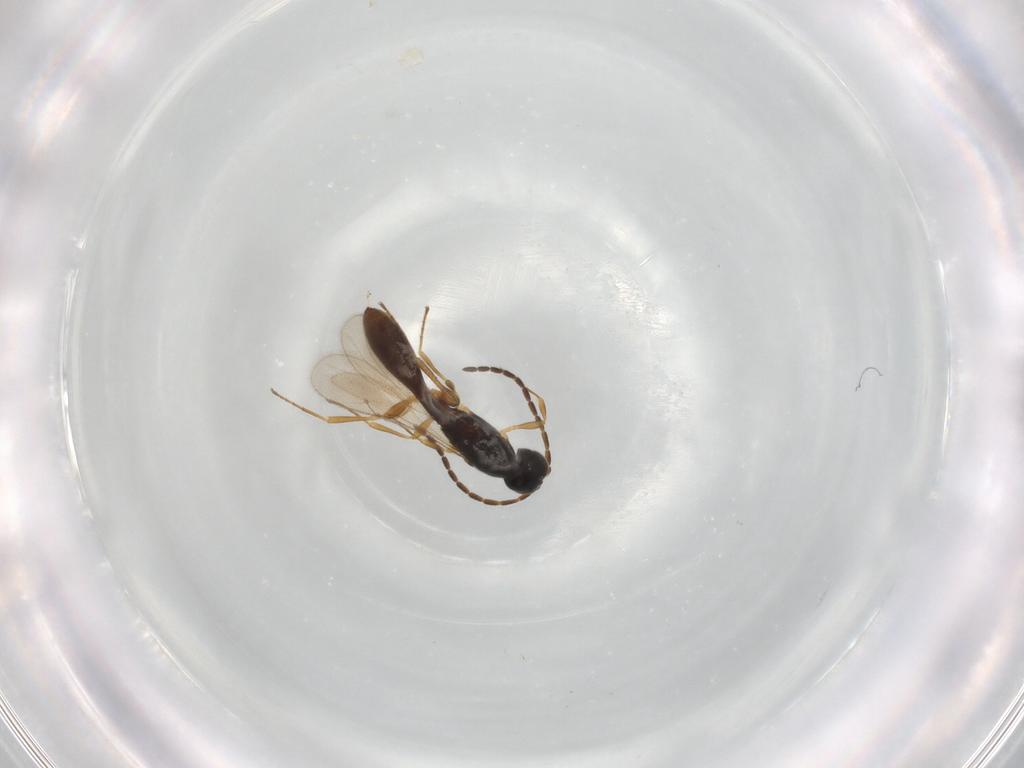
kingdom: Animalia
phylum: Arthropoda
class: Insecta
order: Hymenoptera
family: Scelionidae
